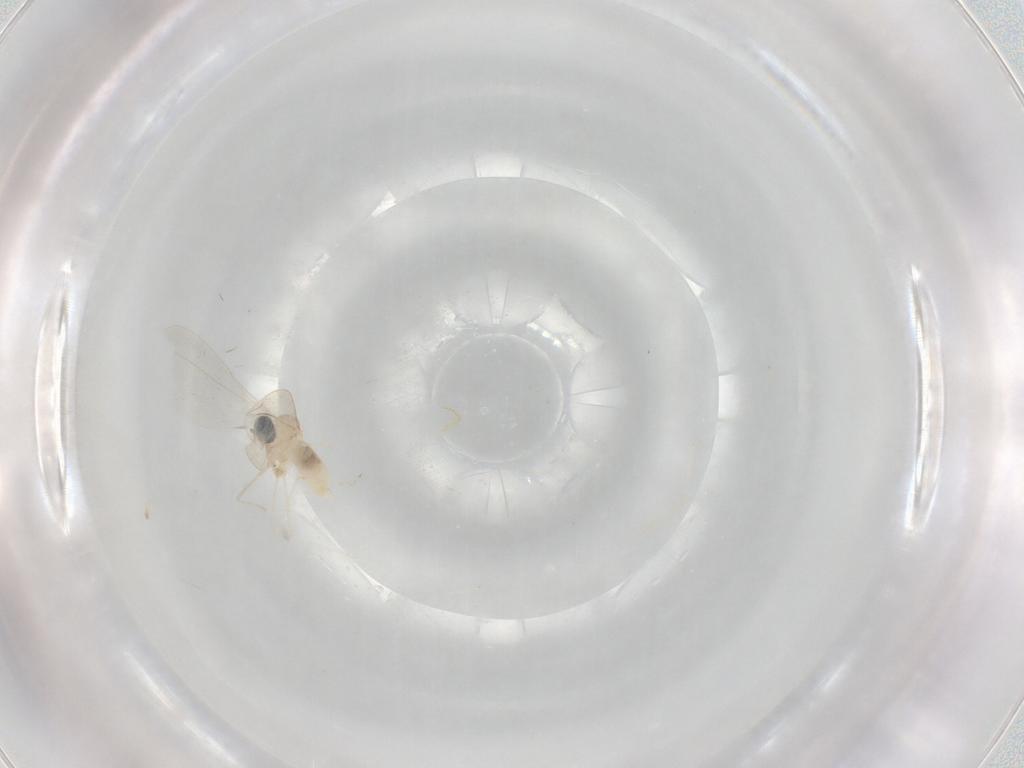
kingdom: Animalia
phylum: Arthropoda
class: Insecta
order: Diptera
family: Cecidomyiidae
